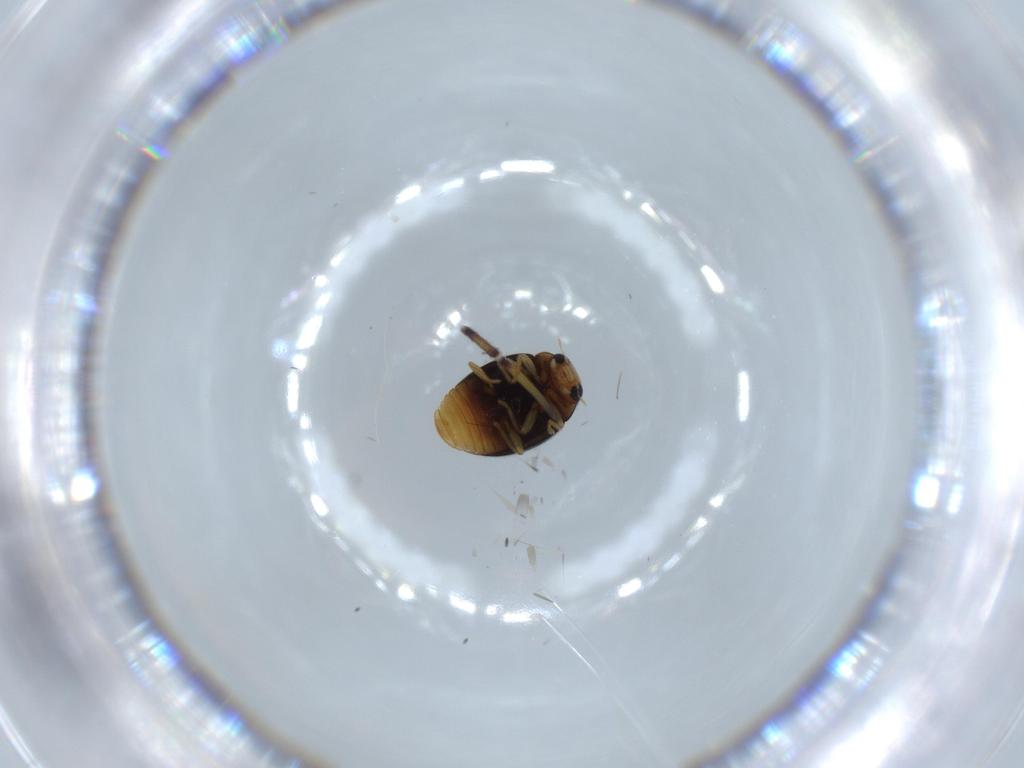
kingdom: Animalia
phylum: Arthropoda
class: Insecta
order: Coleoptera
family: Coccinellidae
